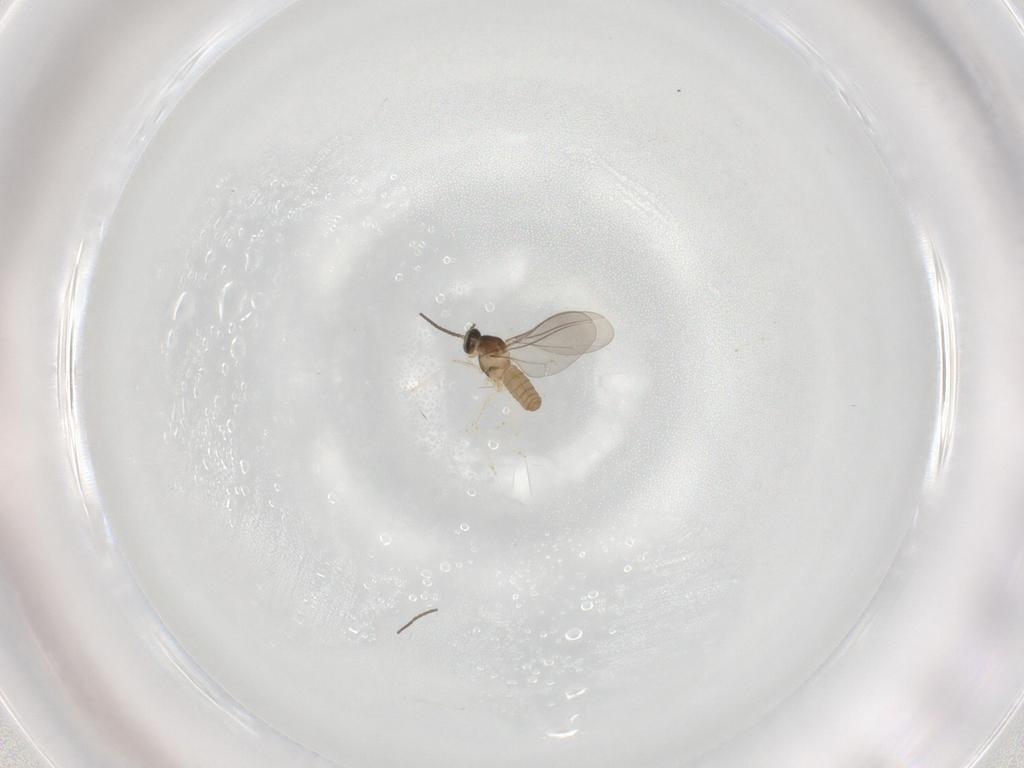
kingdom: Animalia
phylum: Arthropoda
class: Insecta
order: Diptera
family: Cecidomyiidae
